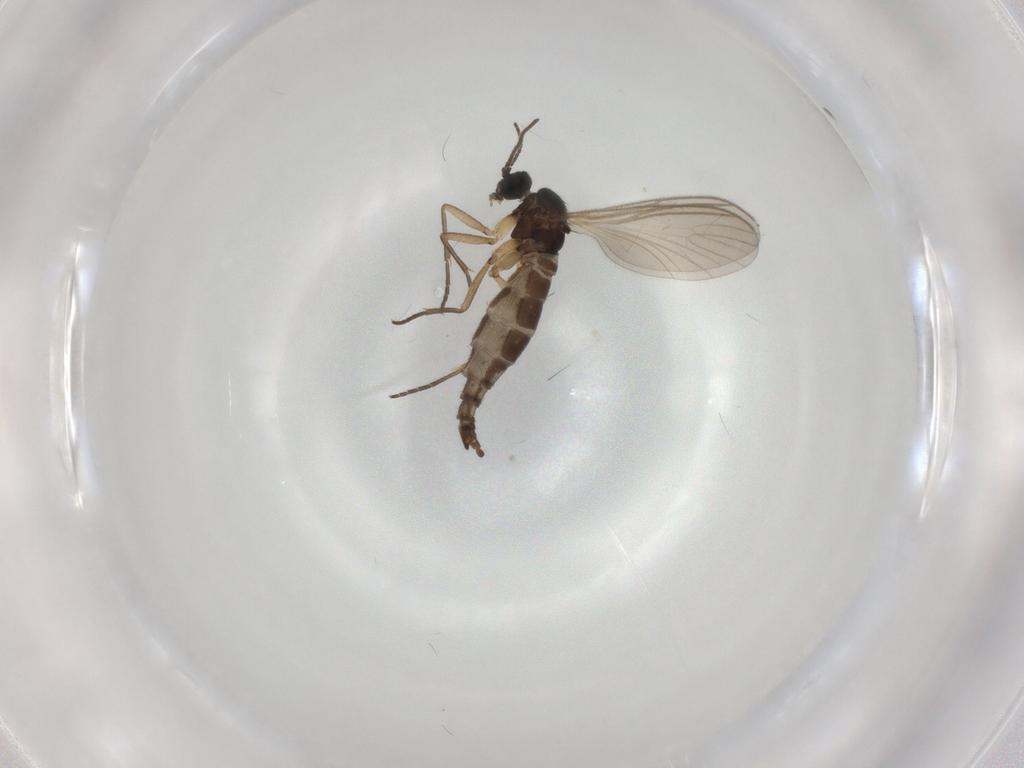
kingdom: Animalia
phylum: Arthropoda
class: Insecta
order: Diptera
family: Sciaridae
